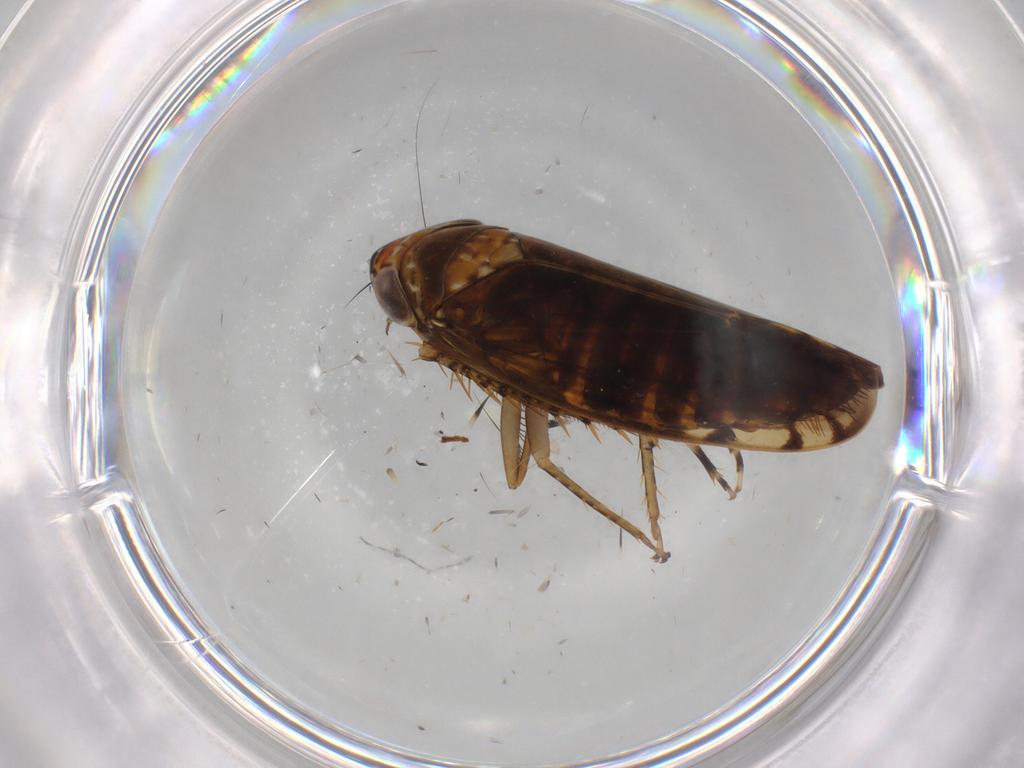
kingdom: Animalia
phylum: Arthropoda
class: Insecta
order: Hemiptera
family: Cicadellidae
